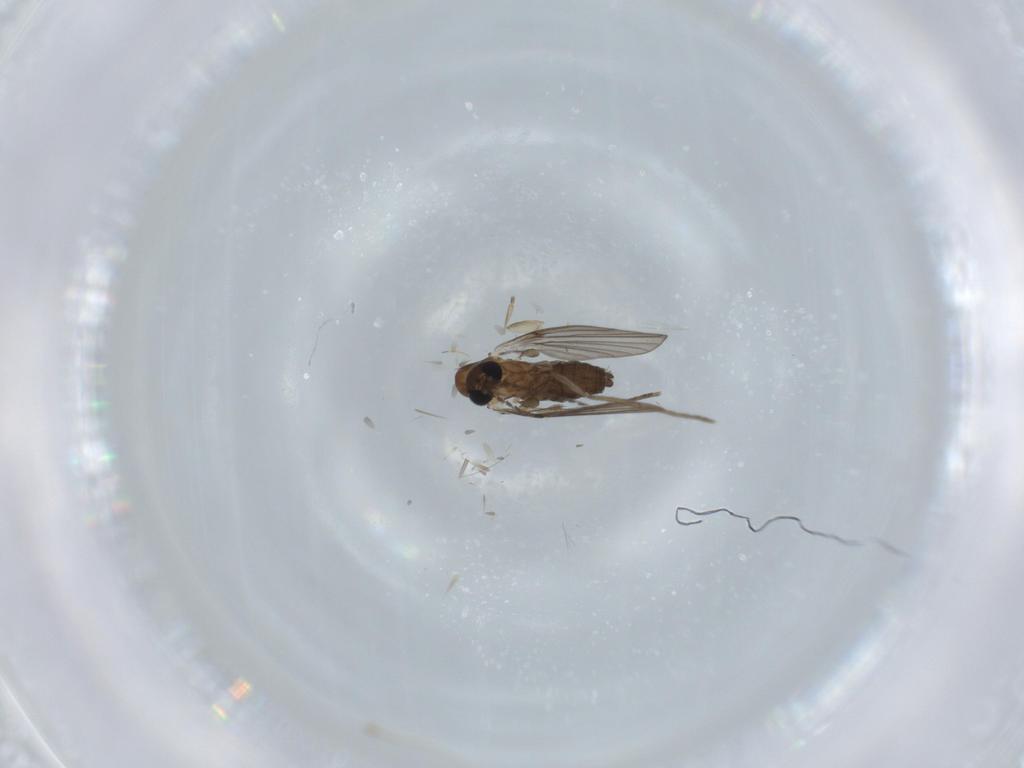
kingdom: Animalia
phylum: Arthropoda
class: Insecta
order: Diptera
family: Psychodidae
